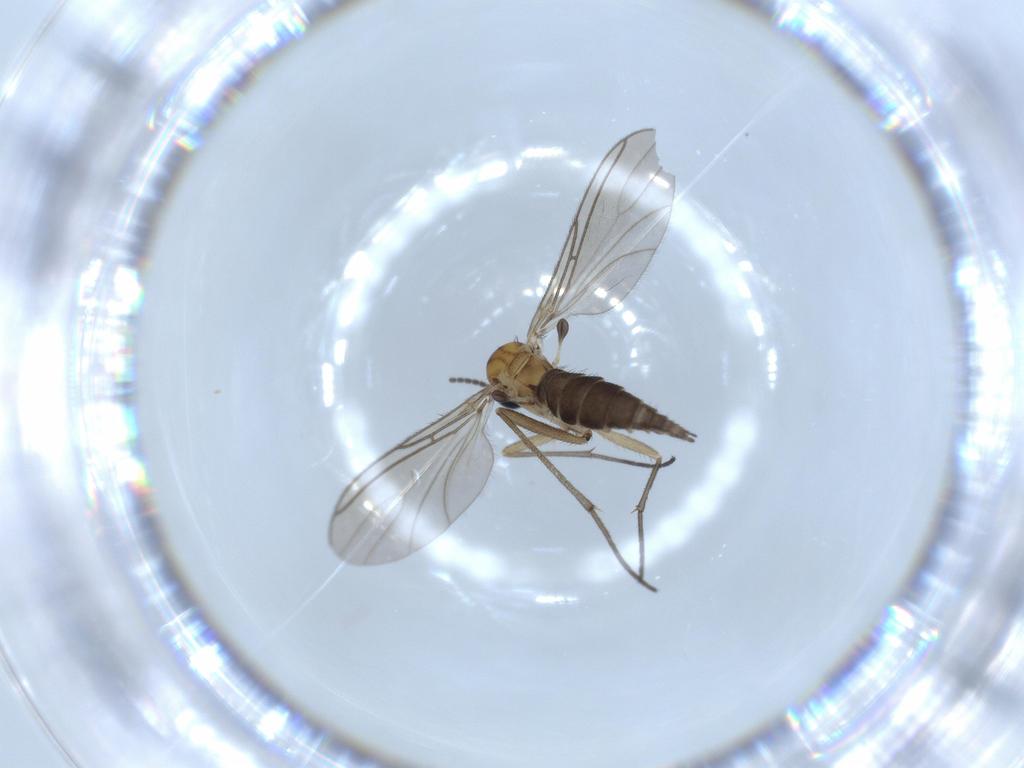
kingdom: Animalia
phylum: Arthropoda
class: Insecta
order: Diptera
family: Sciaridae
